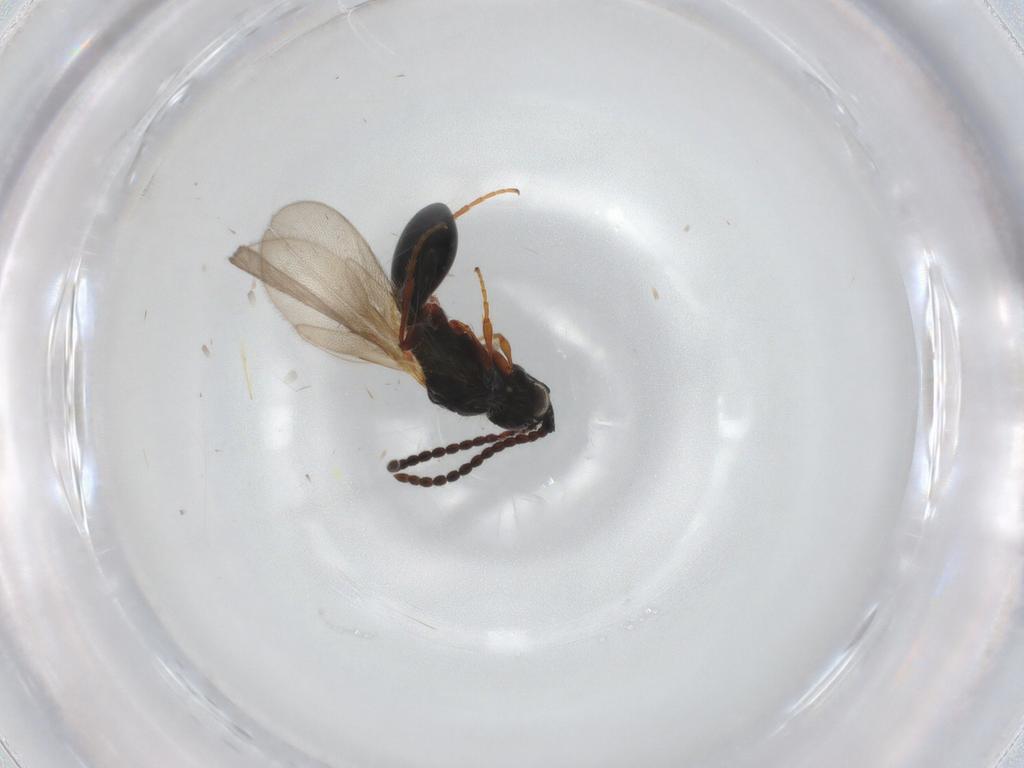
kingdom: Animalia
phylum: Arthropoda
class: Insecta
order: Hymenoptera
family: Diapriidae
